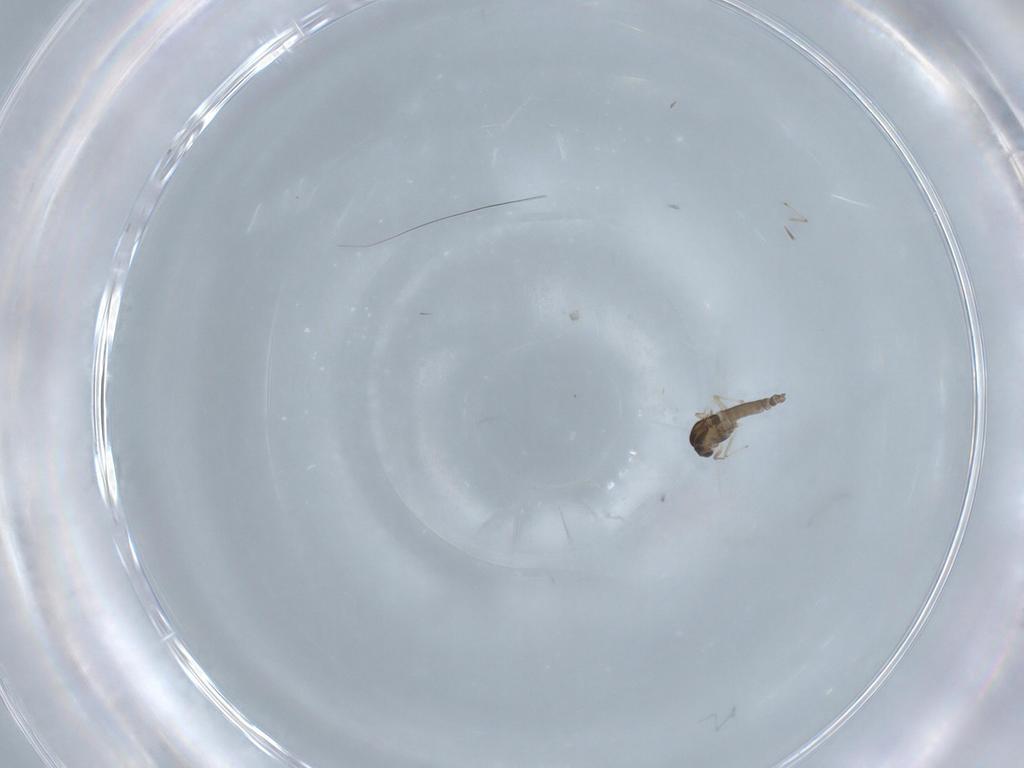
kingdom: Animalia
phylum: Arthropoda
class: Insecta
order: Diptera
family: Chironomidae
